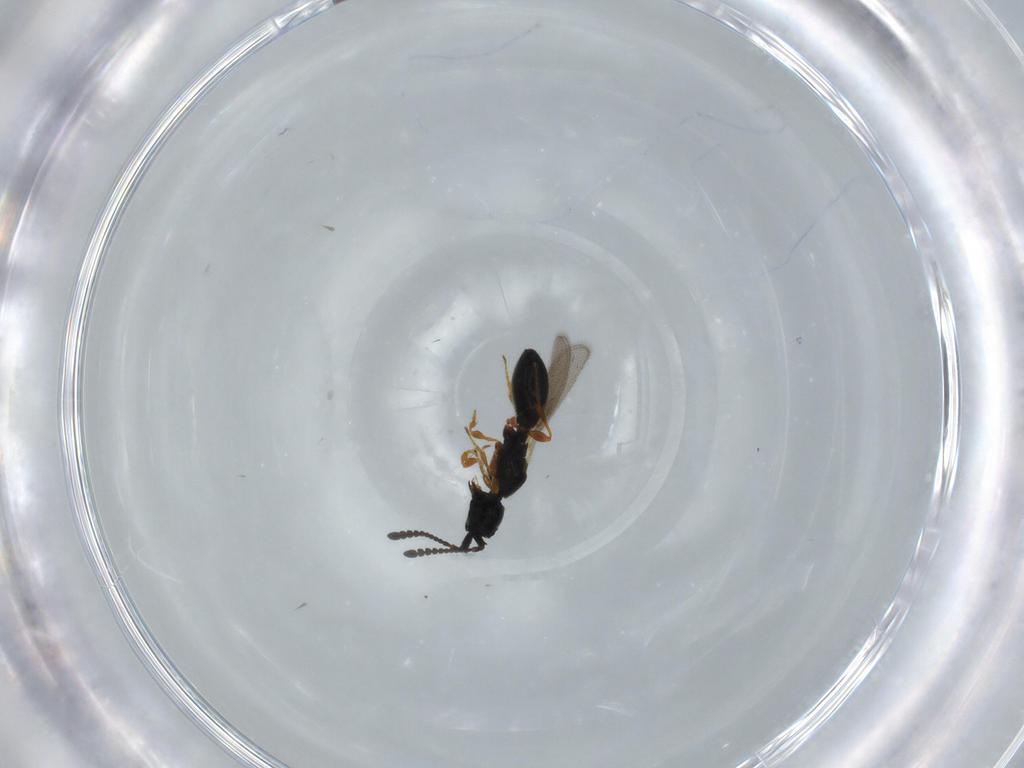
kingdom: Animalia
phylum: Arthropoda
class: Insecta
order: Hymenoptera
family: Diapriidae
